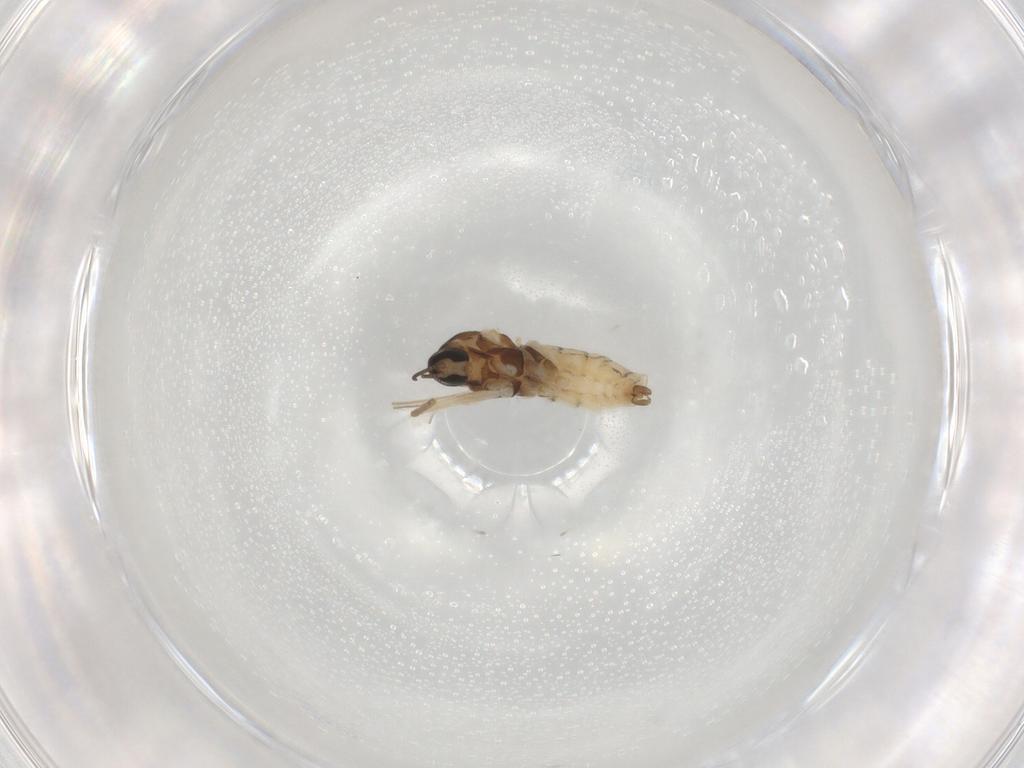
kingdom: Animalia
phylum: Arthropoda
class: Insecta
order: Diptera
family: Cecidomyiidae
